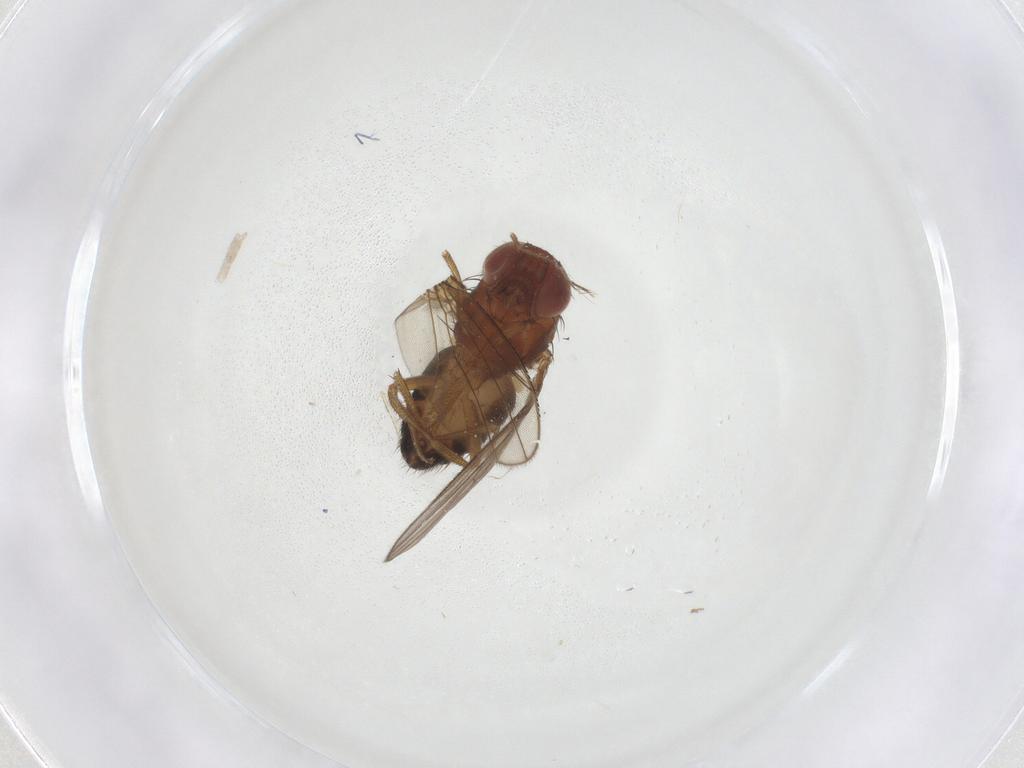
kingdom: Animalia
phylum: Arthropoda
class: Insecta
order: Diptera
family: Drosophilidae
